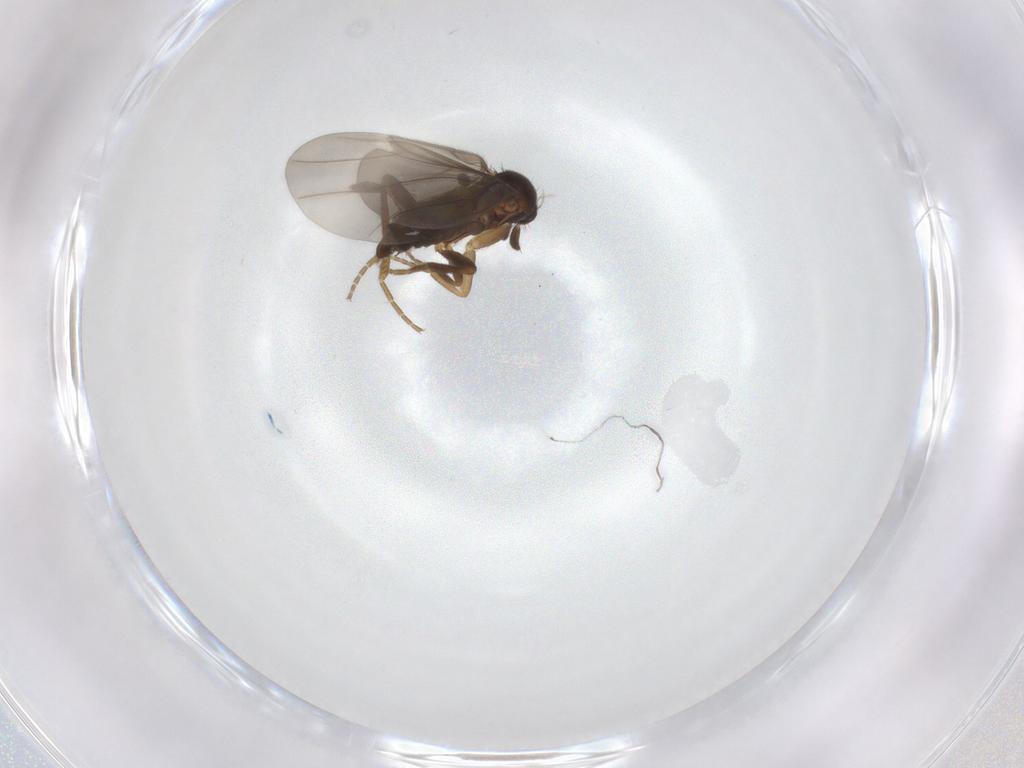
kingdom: Animalia
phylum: Arthropoda
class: Insecta
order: Diptera
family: Phoridae
